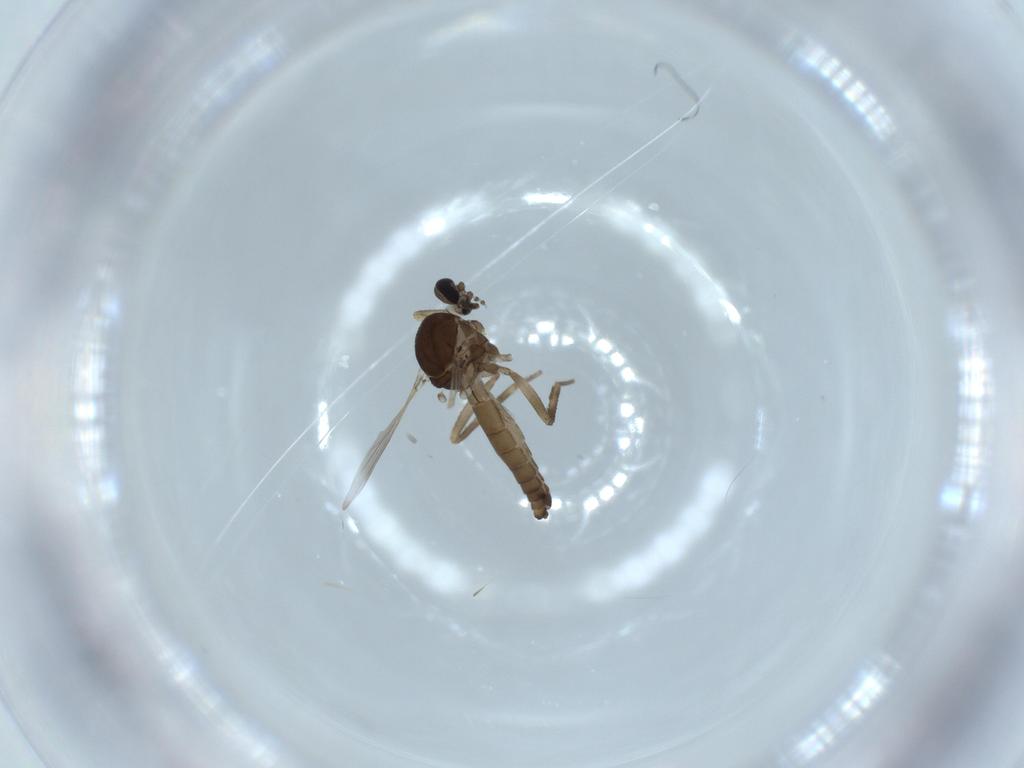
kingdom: Animalia
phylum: Arthropoda
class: Insecta
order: Diptera
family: Ceratopogonidae
